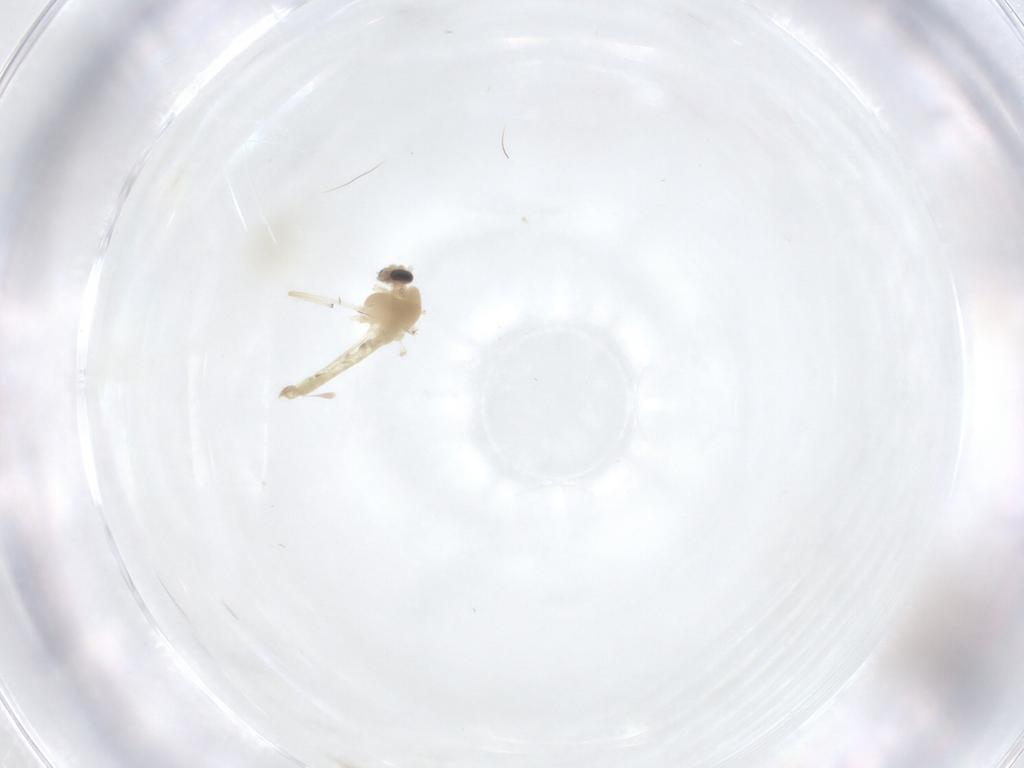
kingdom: Animalia
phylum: Arthropoda
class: Insecta
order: Diptera
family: Chironomidae
